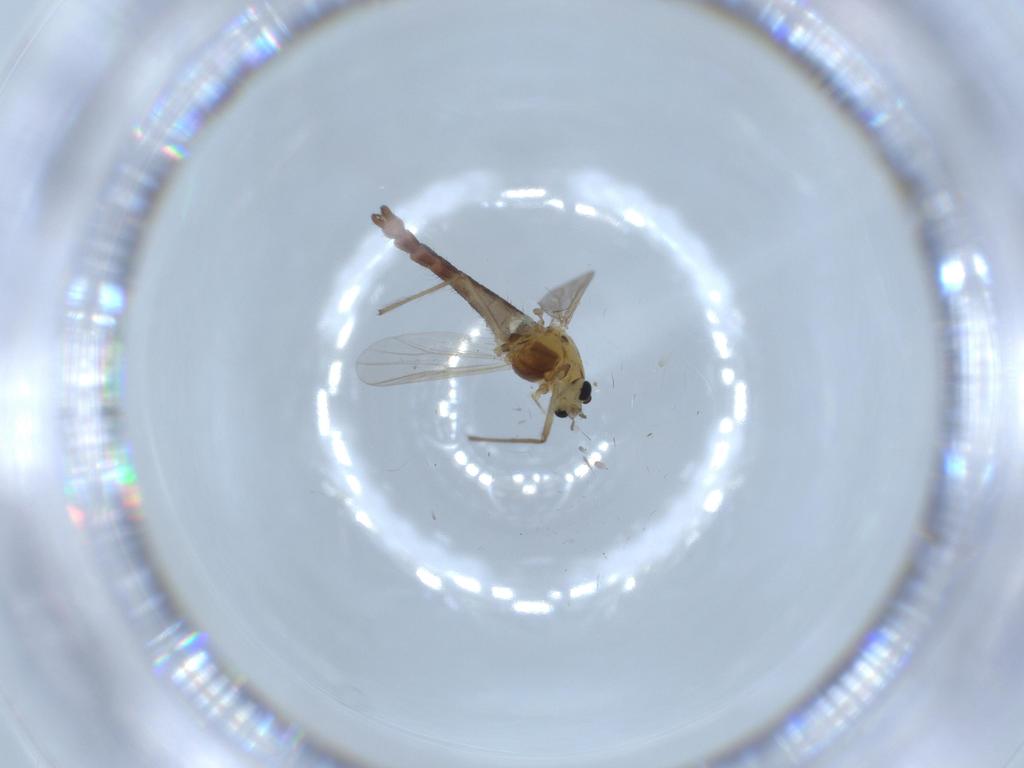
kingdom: Animalia
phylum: Arthropoda
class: Insecta
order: Diptera
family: Chironomidae
